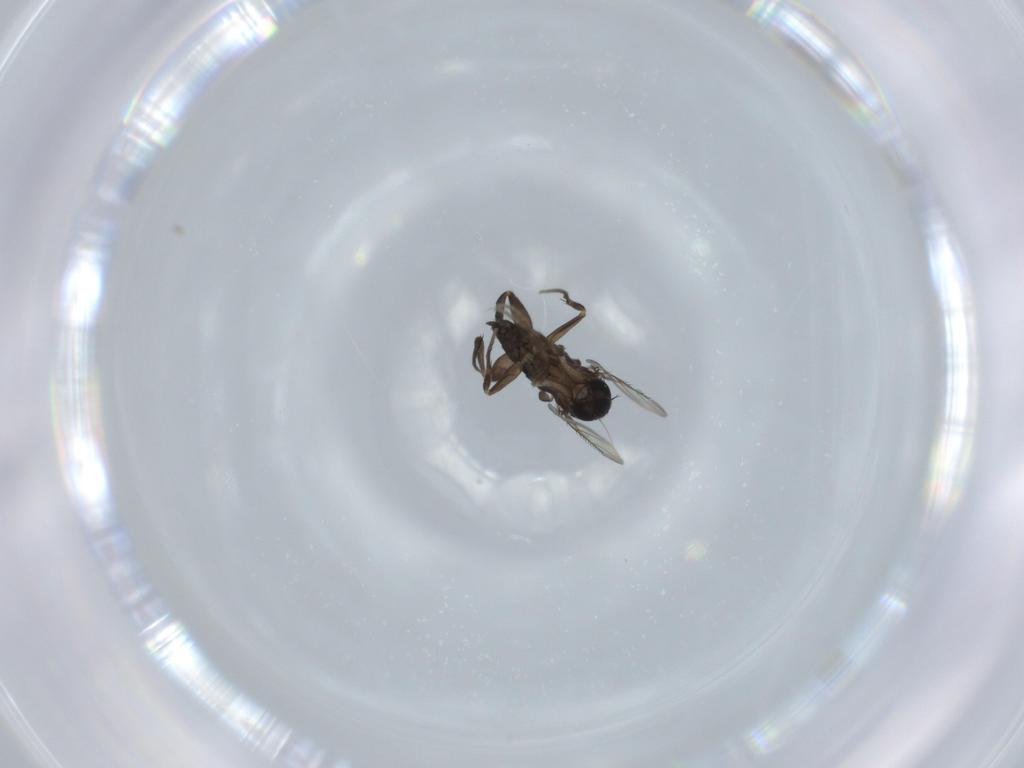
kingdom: Animalia
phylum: Arthropoda
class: Insecta
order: Diptera
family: Phoridae
